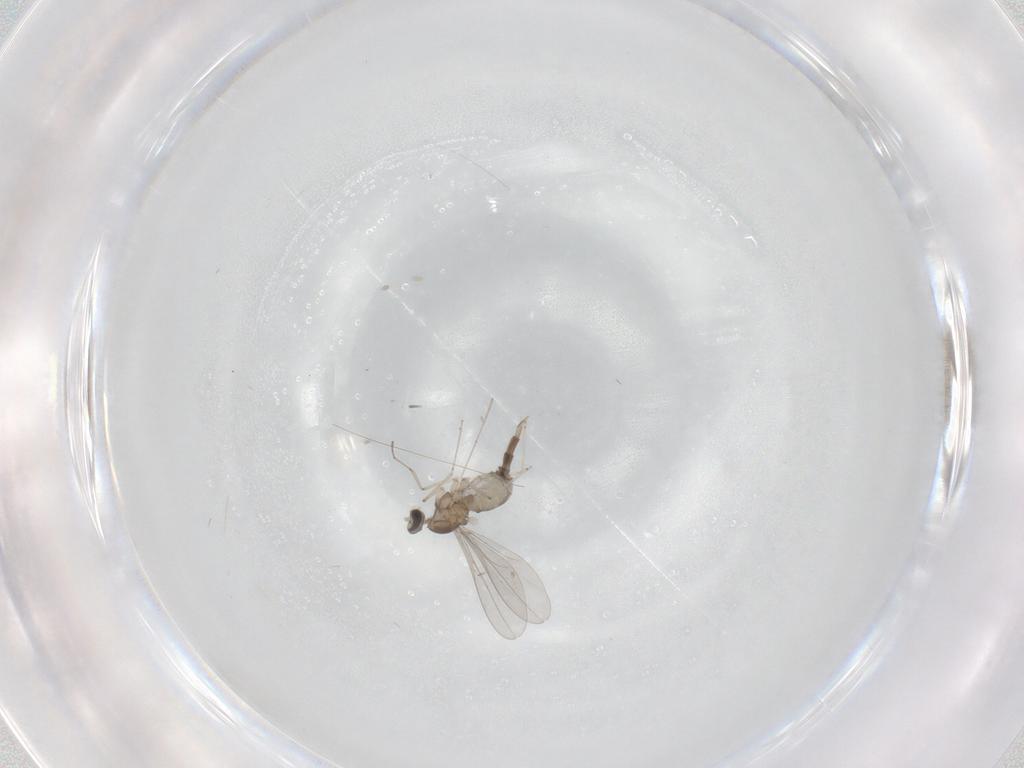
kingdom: Animalia
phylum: Arthropoda
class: Insecta
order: Diptera
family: Cecidomyiidae
